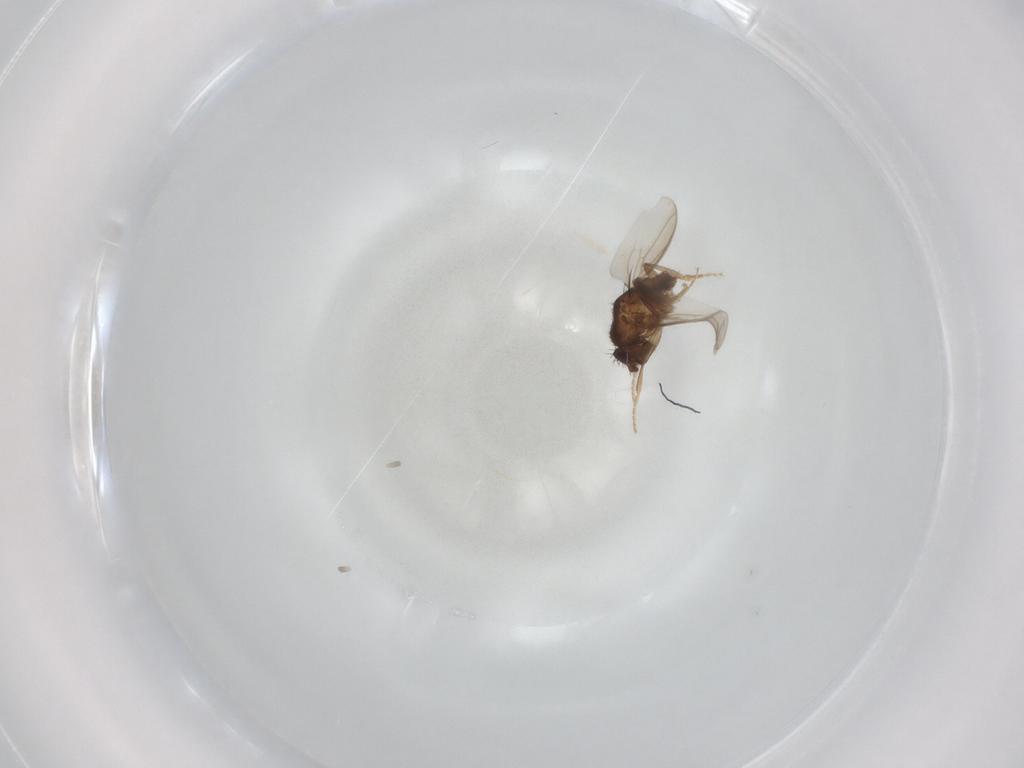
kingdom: Animalia
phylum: Arthropoda
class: Insecta
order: Diptera
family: Sphaeroceridae
